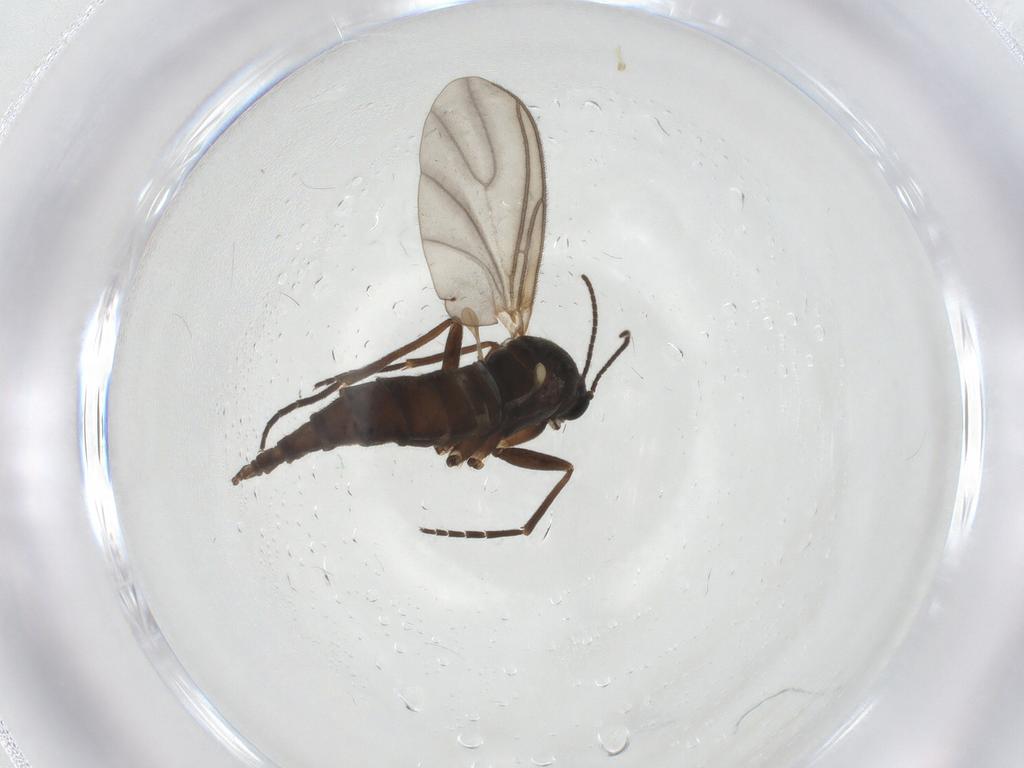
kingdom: Animalia
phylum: Arthropoda
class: Insecta
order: Diptera
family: Sciaridae
